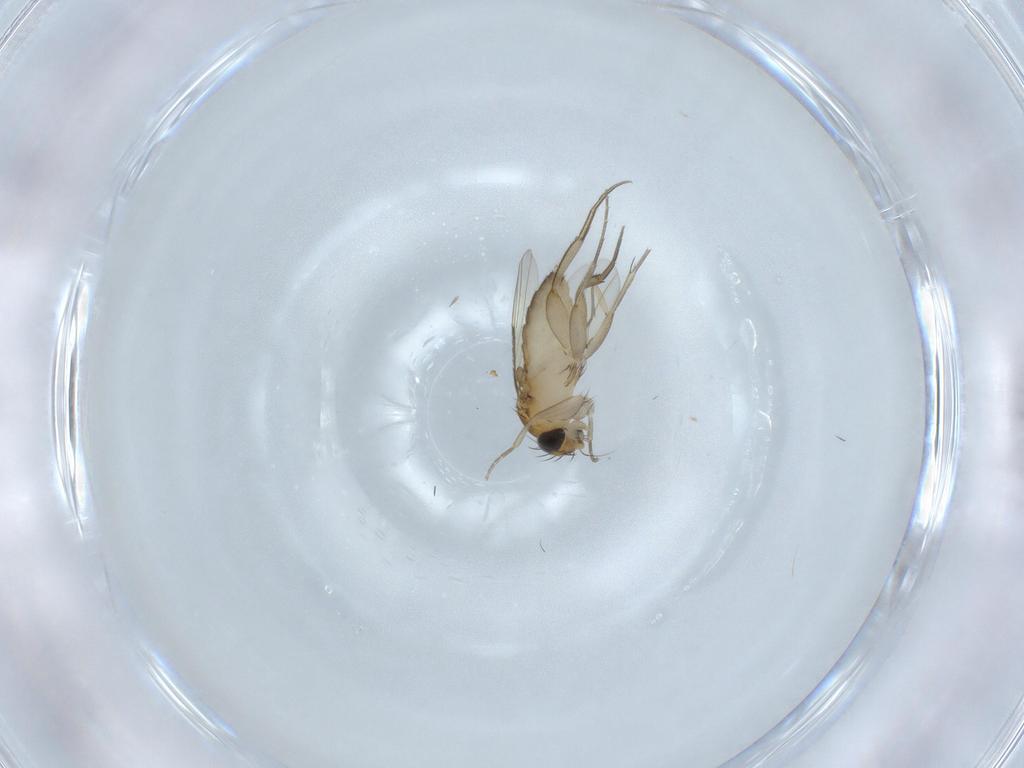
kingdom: Animalia
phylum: Arthropoda
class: Insecta
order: Diptera
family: Phoridae
